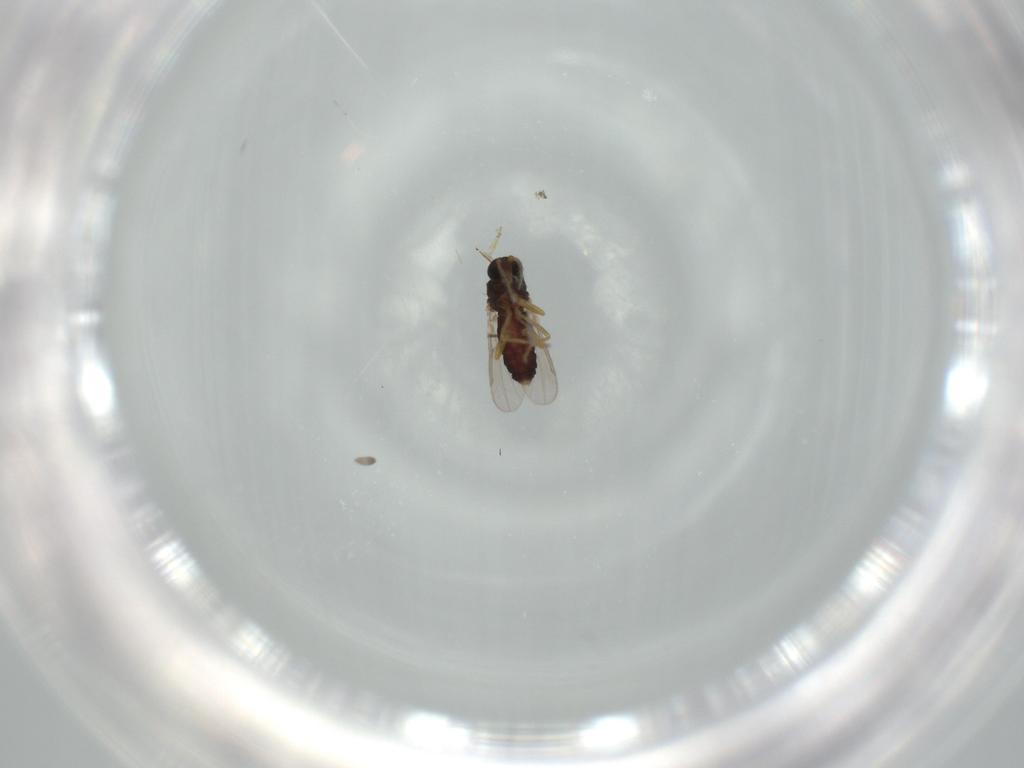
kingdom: Animalia
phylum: Arthropoda
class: Insecta
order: Diptera
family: Ceratopogonidae
